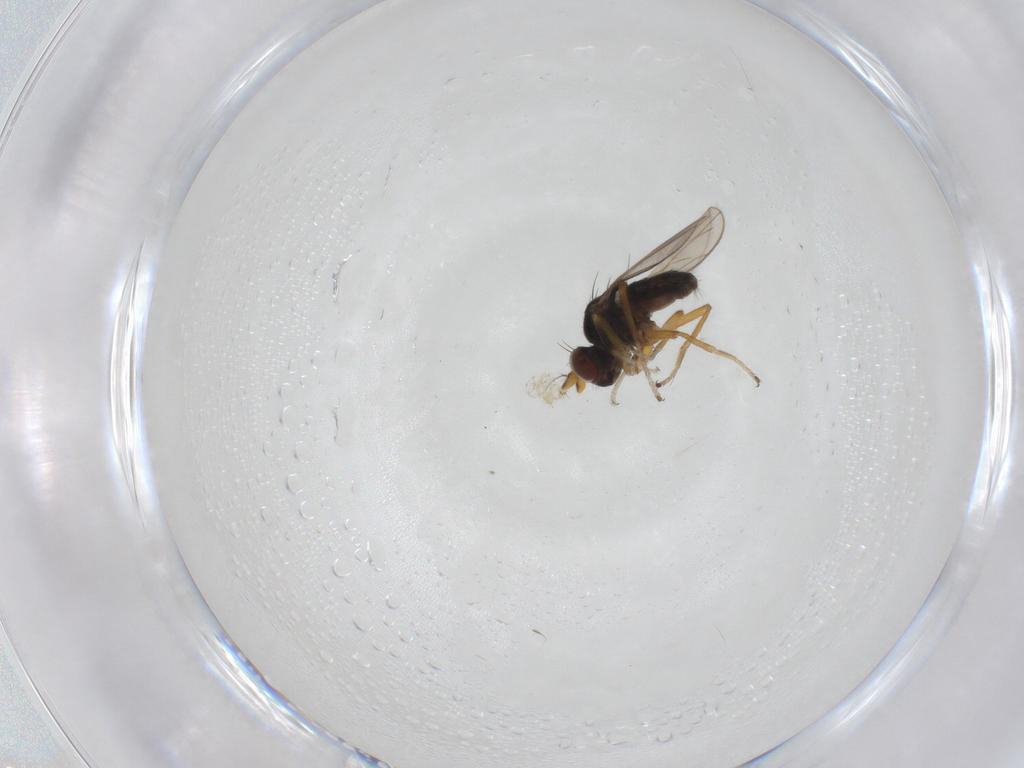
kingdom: Animalia
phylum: Arthropoda
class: Insecta
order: Diptera
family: Ephydridae
